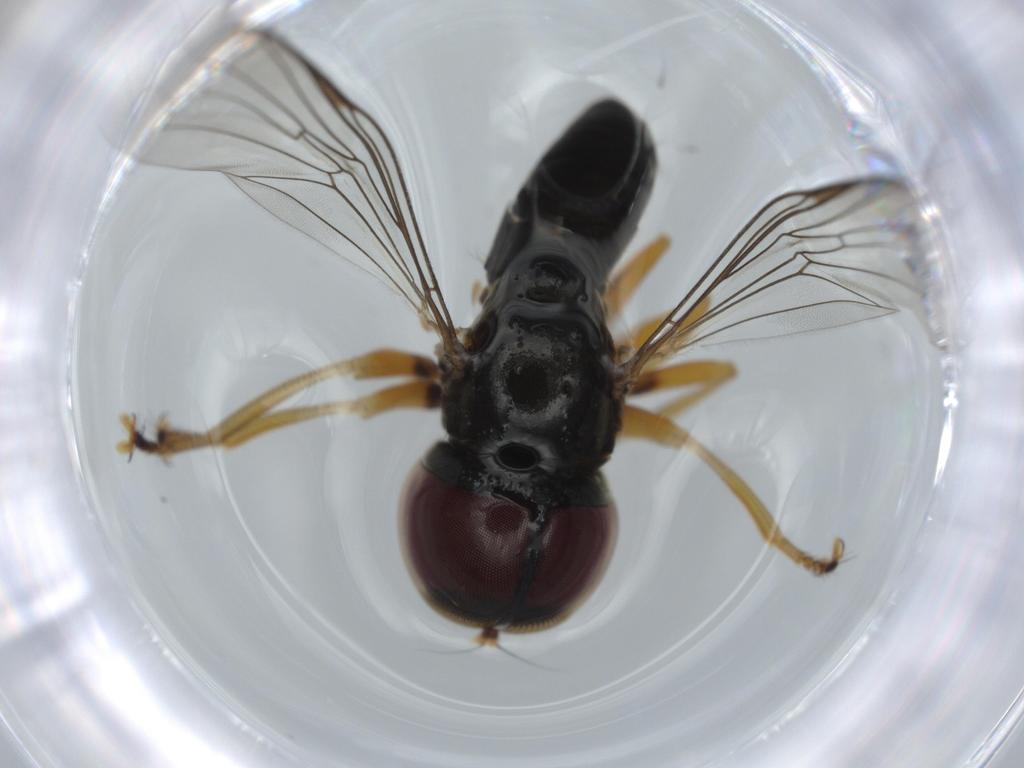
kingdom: Animalia
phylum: Arthropoda
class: Insecta
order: Diptera
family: Pipunculidae
